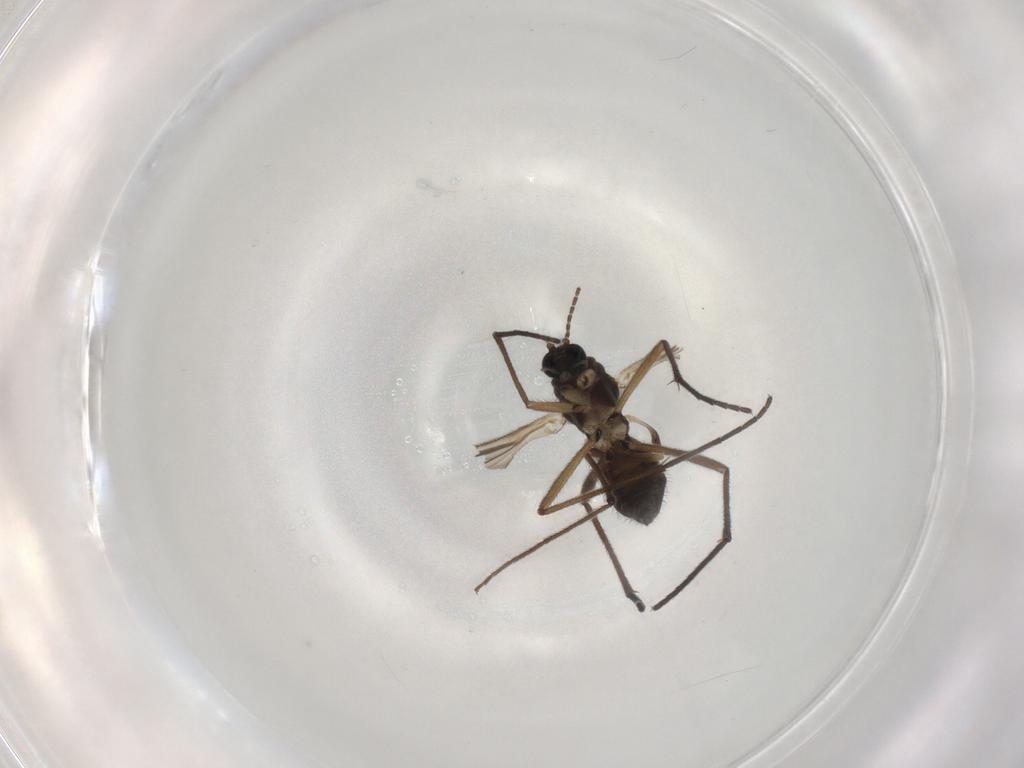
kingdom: Animalia
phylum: Arthropoda
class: Insecta
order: Diptera
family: Sciaridae
